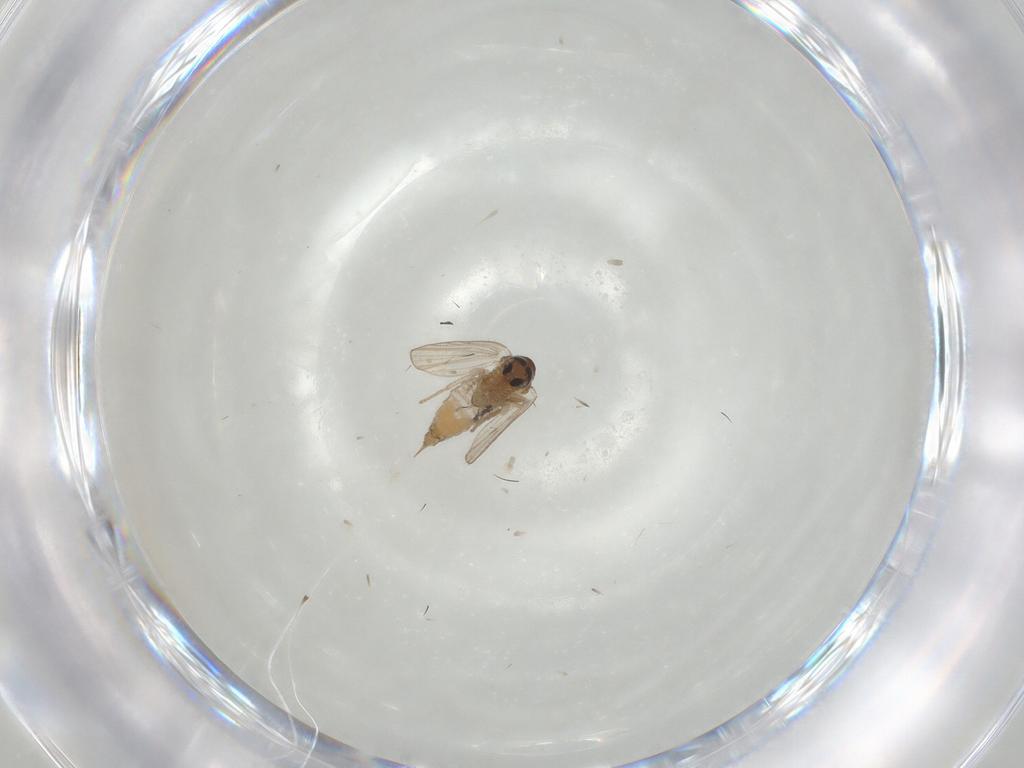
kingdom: Animalia
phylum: Arthropoda
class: Insecta
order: Diptera
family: Psychodidae
